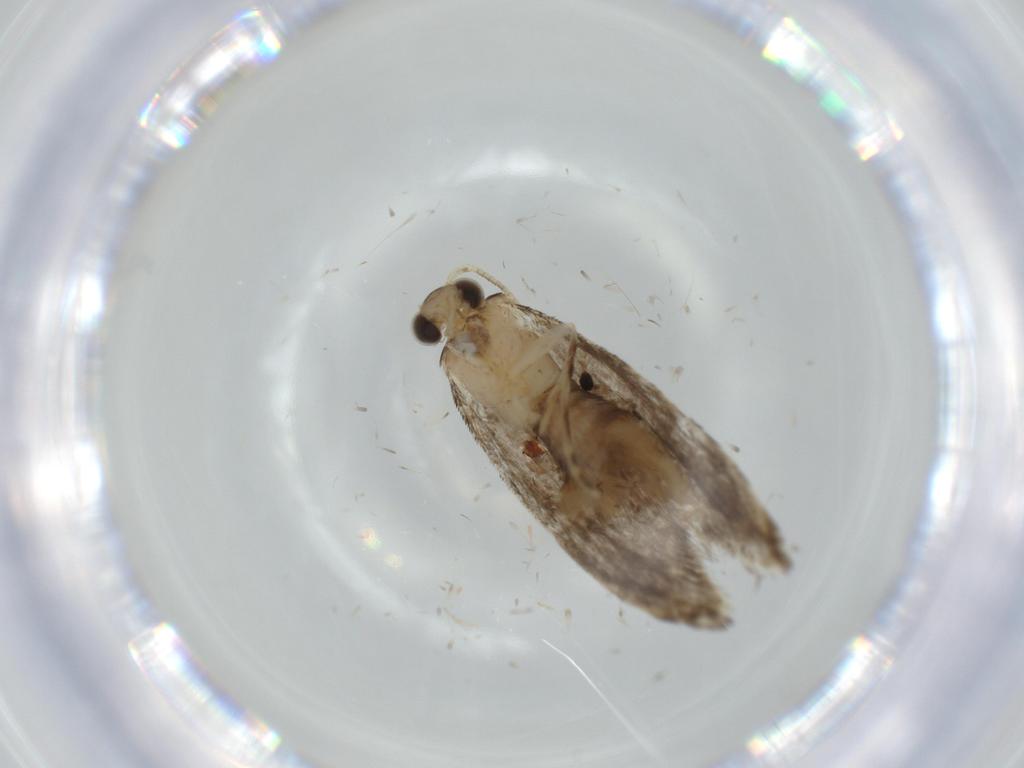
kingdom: Animalia
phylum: Arthropoda
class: Insecta
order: Lepidoptera
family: Tineidae
